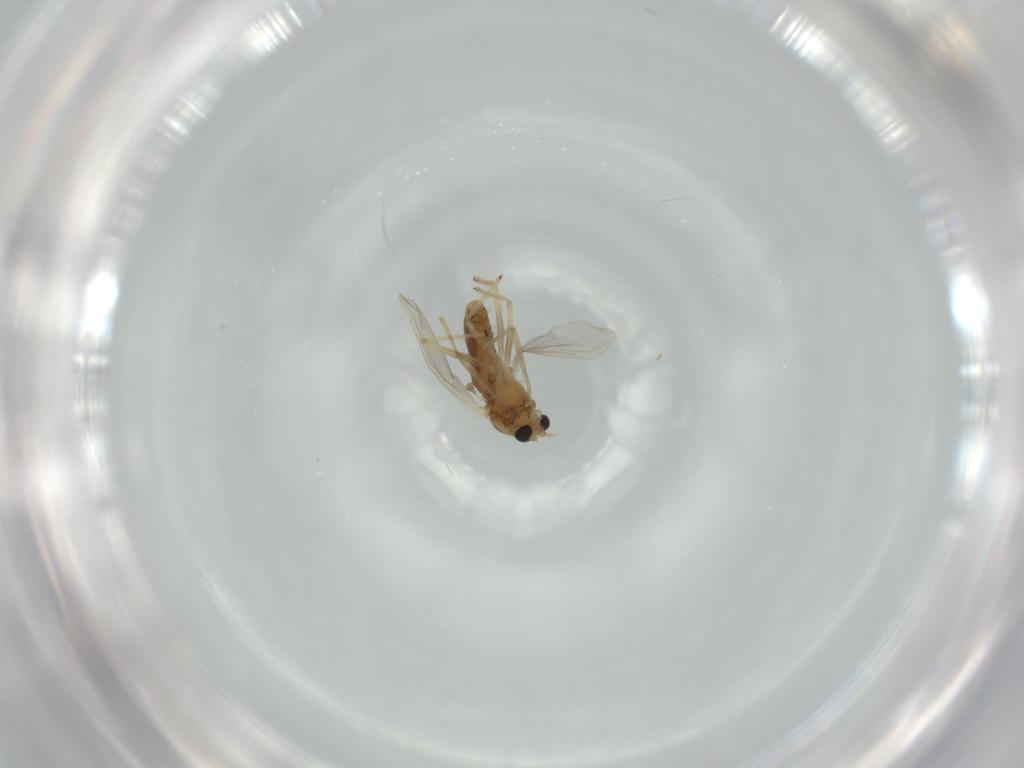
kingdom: Animalia
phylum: Arthropoda
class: Insecta
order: Diptera
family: Chironomidae
